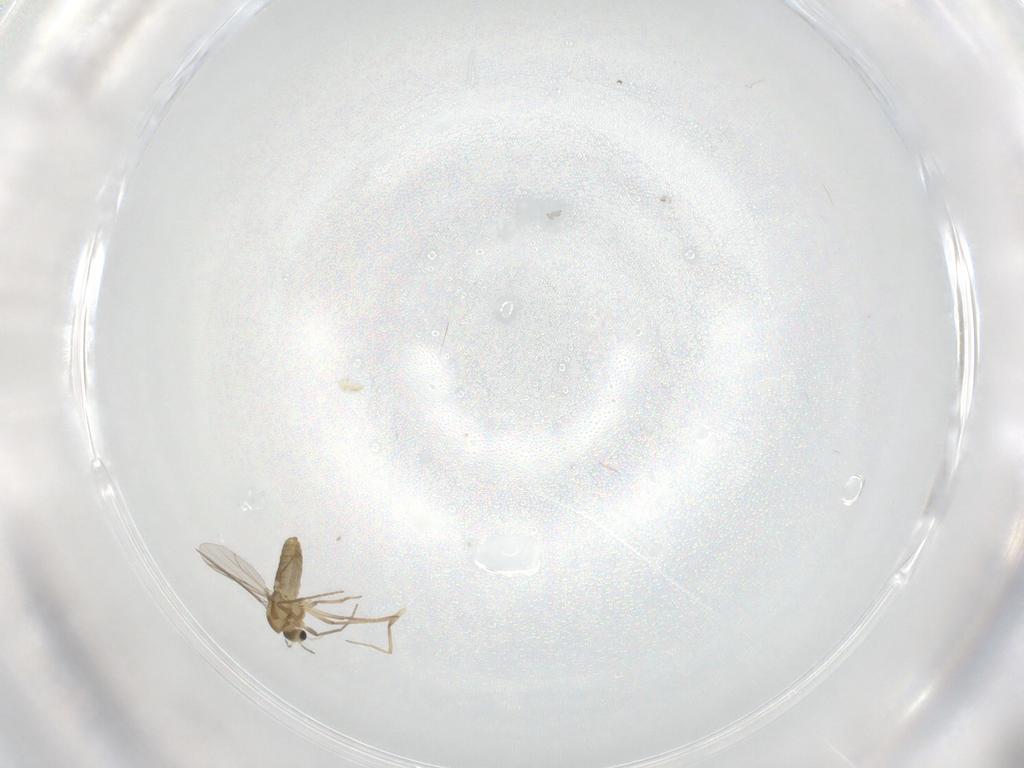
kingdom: Animalia
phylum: Arthropoda
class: Insecta
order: Diptera
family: Chironomidae
